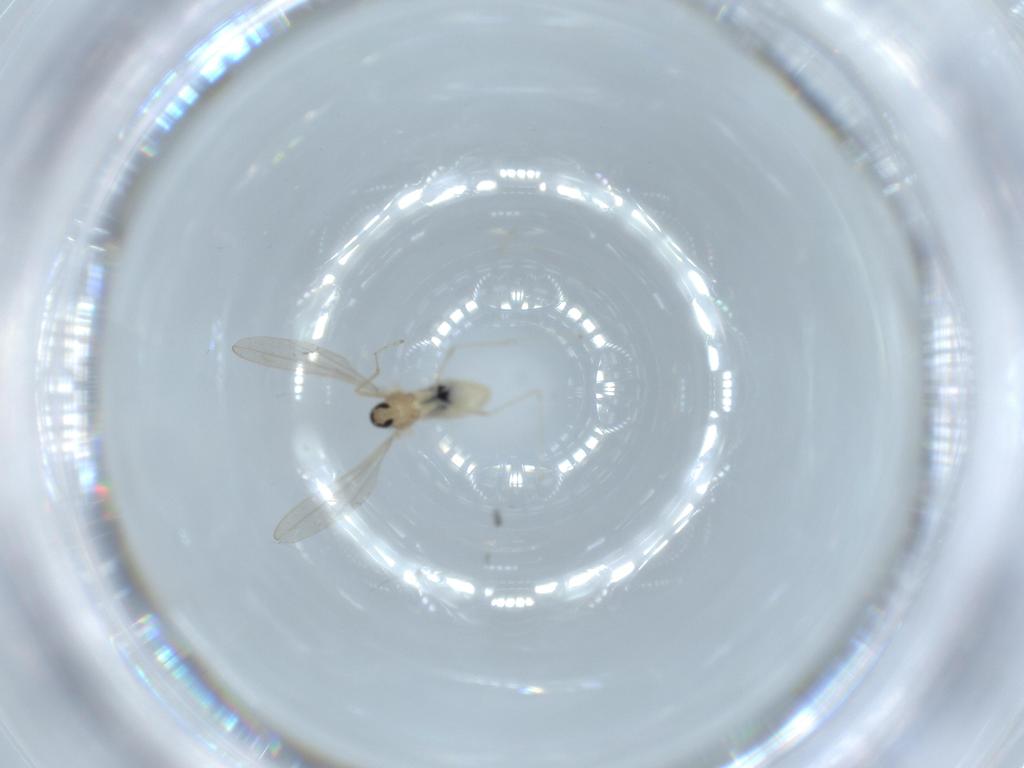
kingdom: Animalia
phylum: Arthropoda
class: Insecta
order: Diptera
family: Cecidomyiidae
